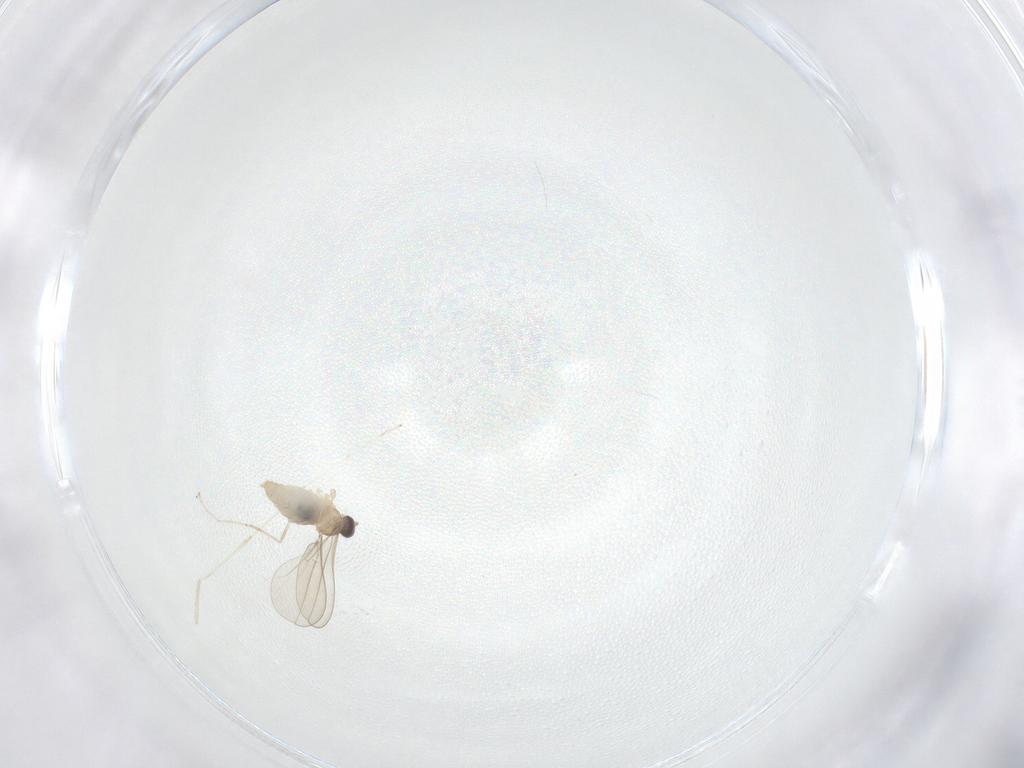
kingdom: Animalia
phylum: Arthropoda
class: Insecta
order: Diptera
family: Cecidomyiidae
